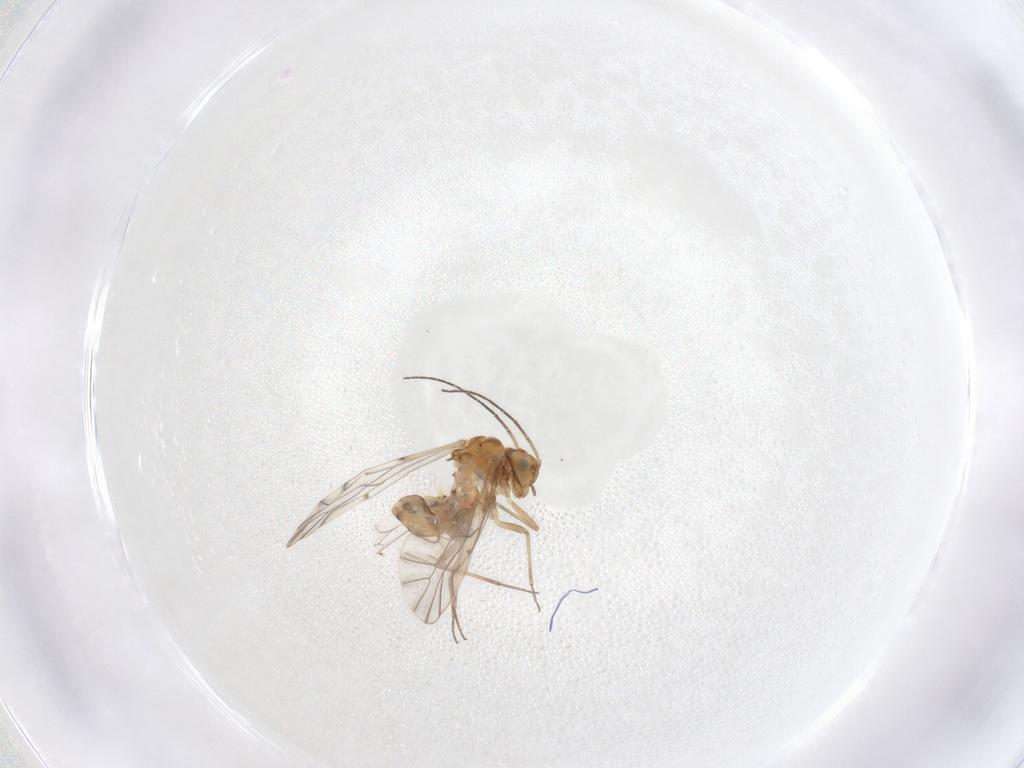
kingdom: Animalia
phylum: Arthropoda
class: Insecta
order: Psocodea
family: Lachesillidae
